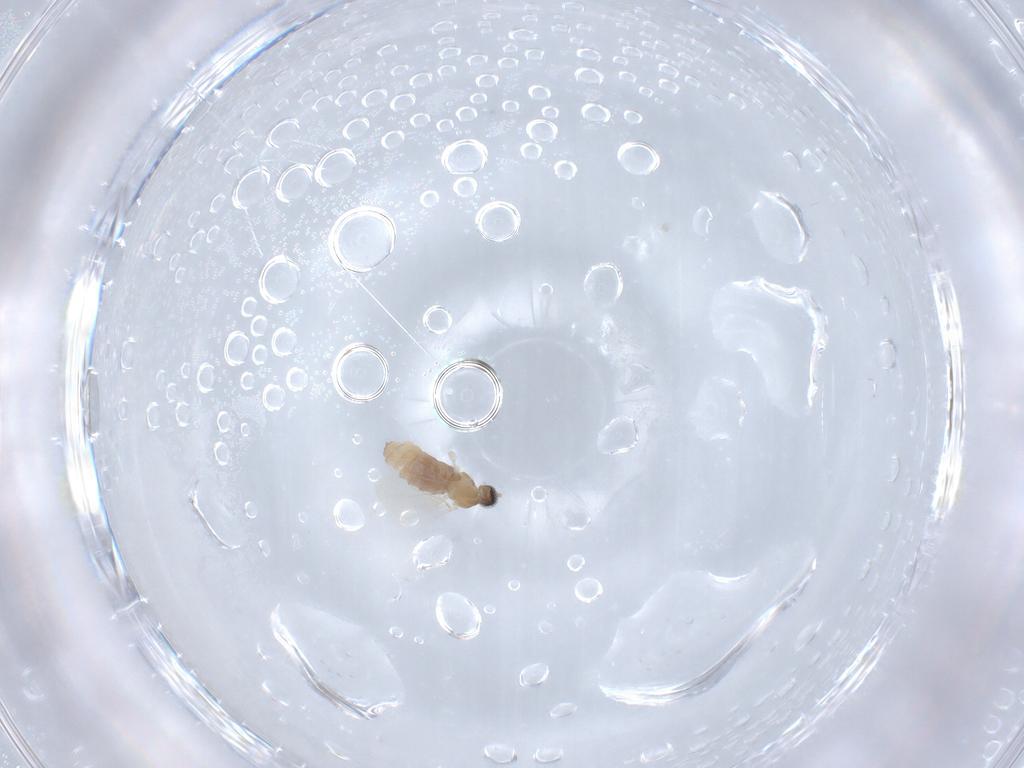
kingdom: Animalia
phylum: Arthropoda
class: Insecta
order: Diptera
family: Cecidomyiidae
